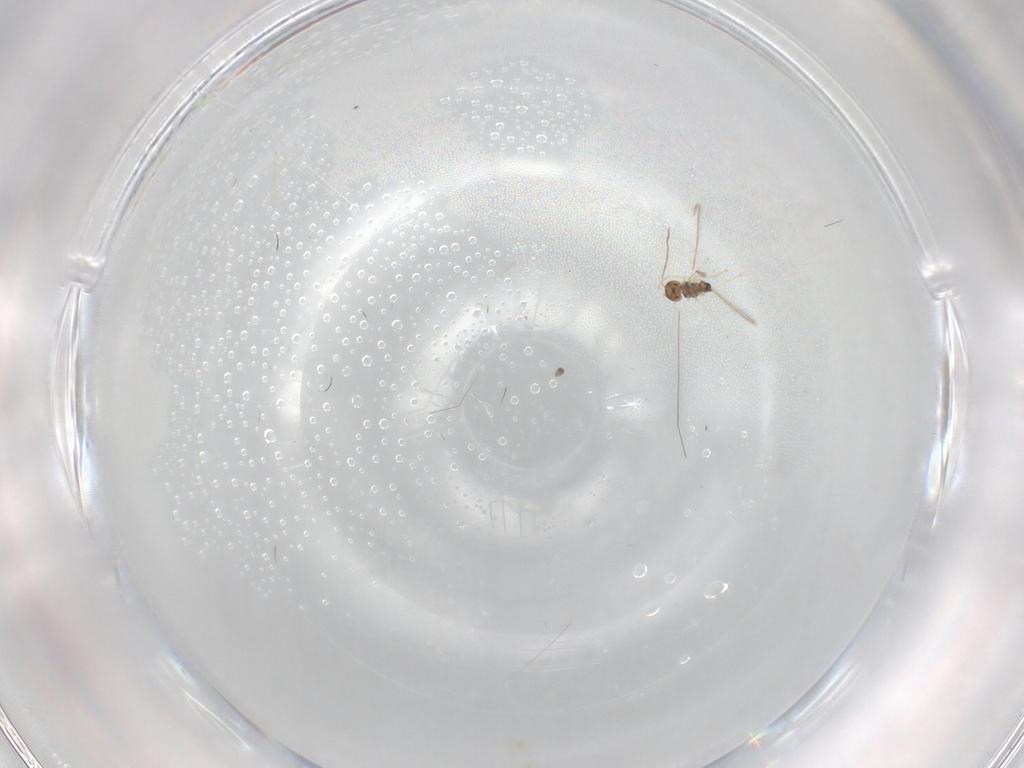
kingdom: Animalia
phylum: Arthropoda
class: Insecta
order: Hymenoptera
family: Mymaridae
